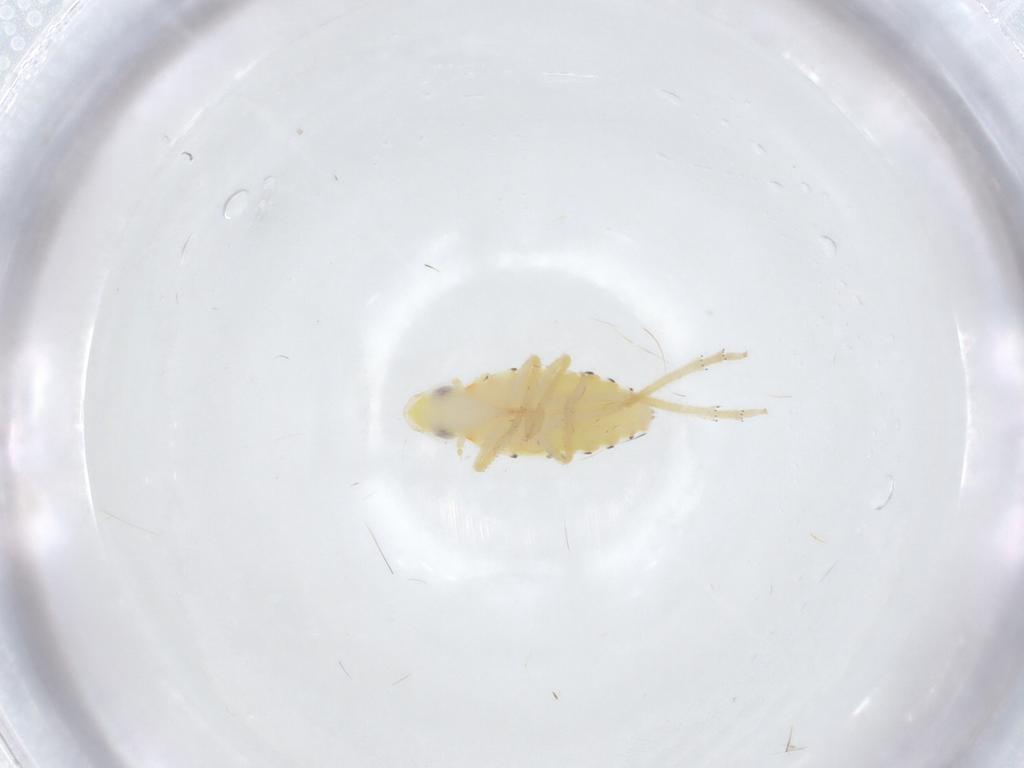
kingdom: Animalia
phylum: Arthropoda
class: Insecta
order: Hemiptera
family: Tropiduchidae
